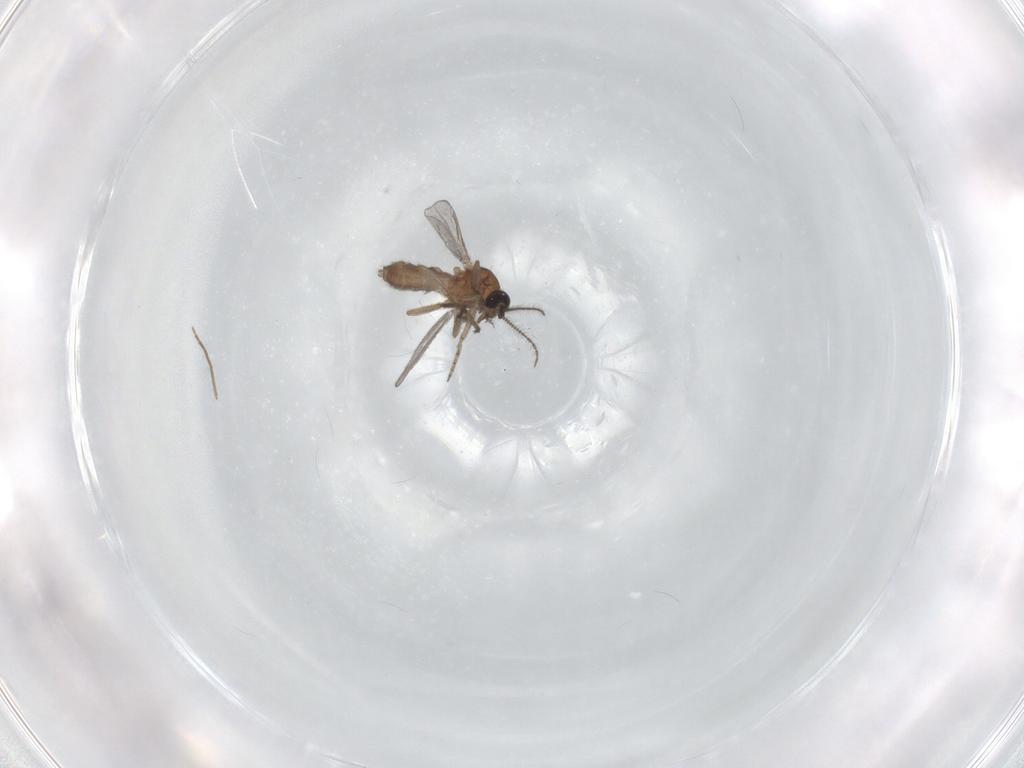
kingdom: Animalia
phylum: Arthropoda
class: Insecta
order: Diptera
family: Ceratopogonidae
